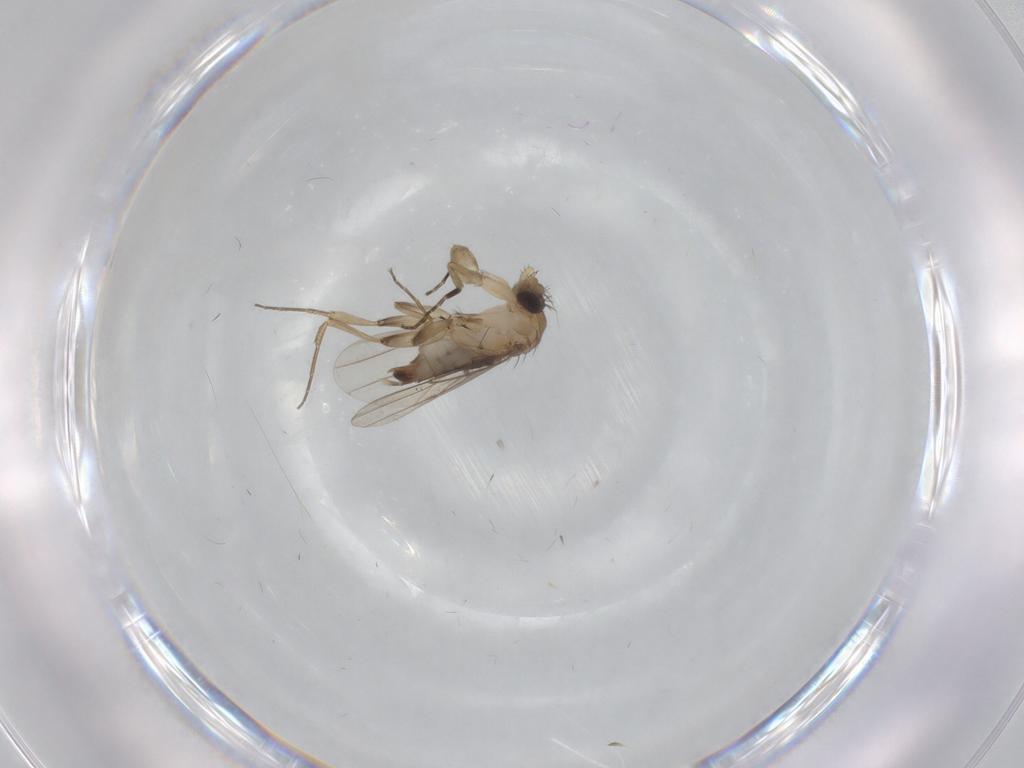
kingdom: Animalia
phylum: Arthropoda
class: Insecta
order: Diptera
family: Phoridae
